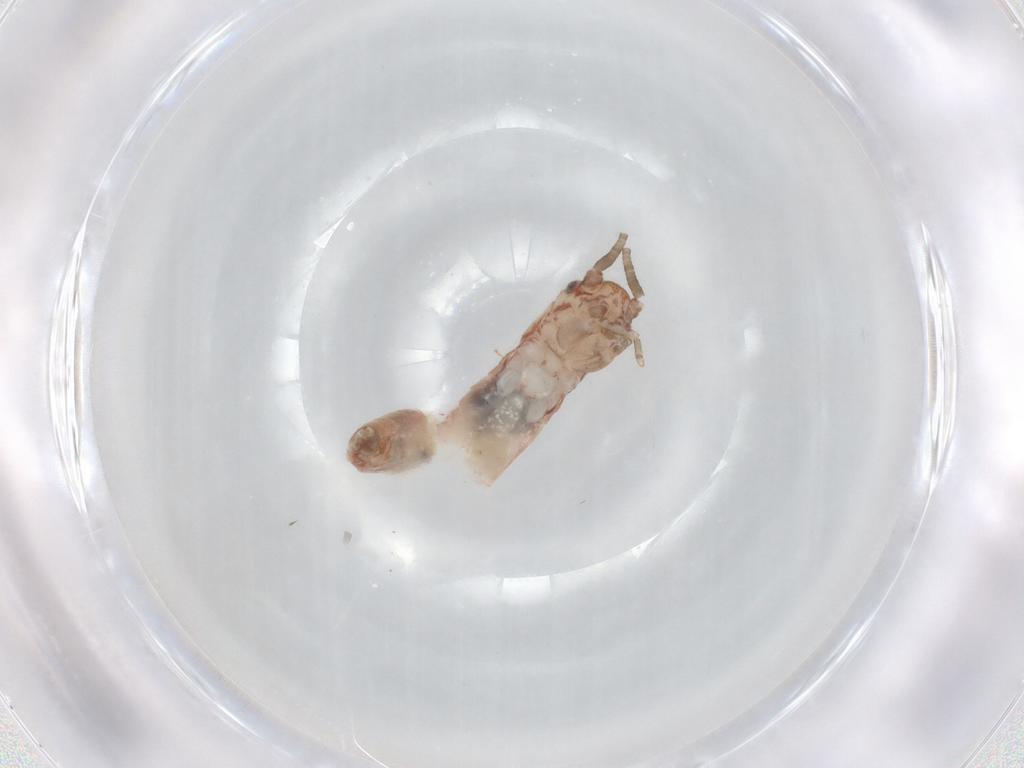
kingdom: Animalia
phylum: Arthropoda
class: Insecta
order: Orthoptera
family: Gryllidae
